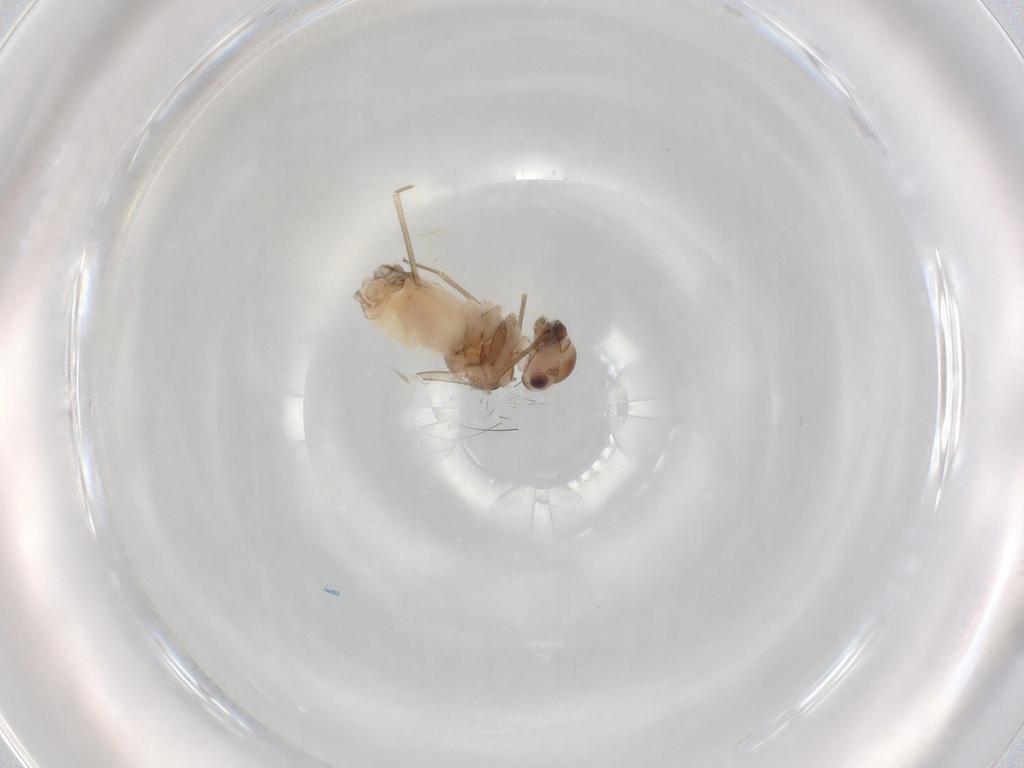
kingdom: Animalia
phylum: Arthropoda
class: Insecta
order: Psocodea
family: Peripsocidae
